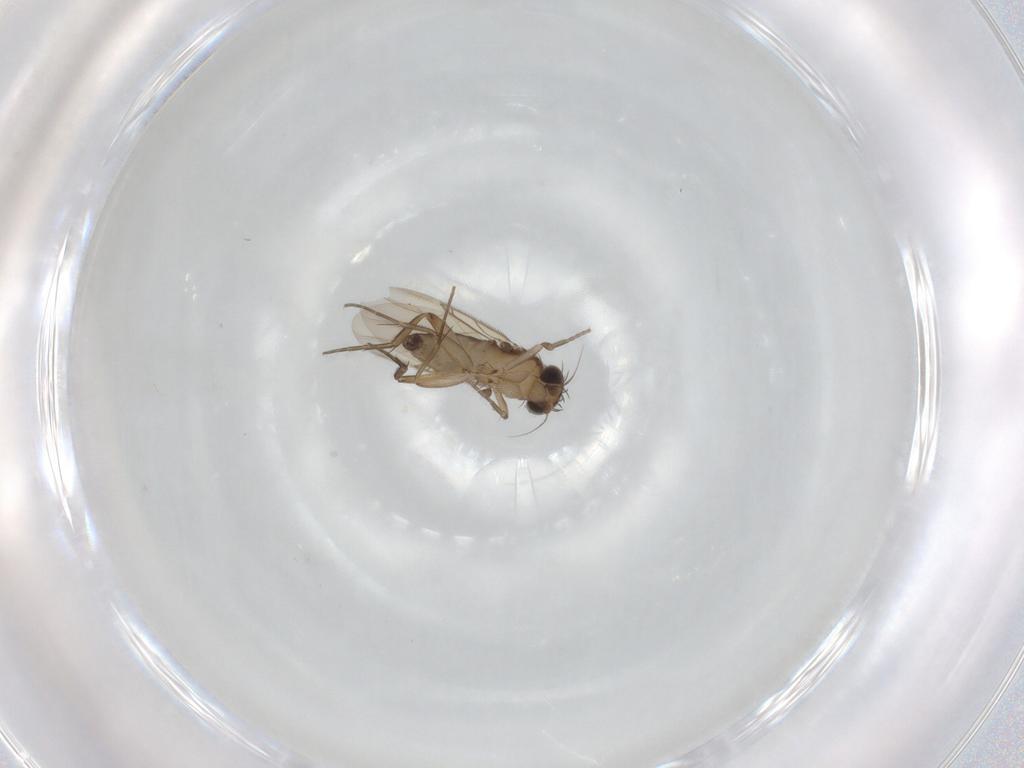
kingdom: Animalia
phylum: Arthropoda
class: Insecta
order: Diptera
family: Phoridae
